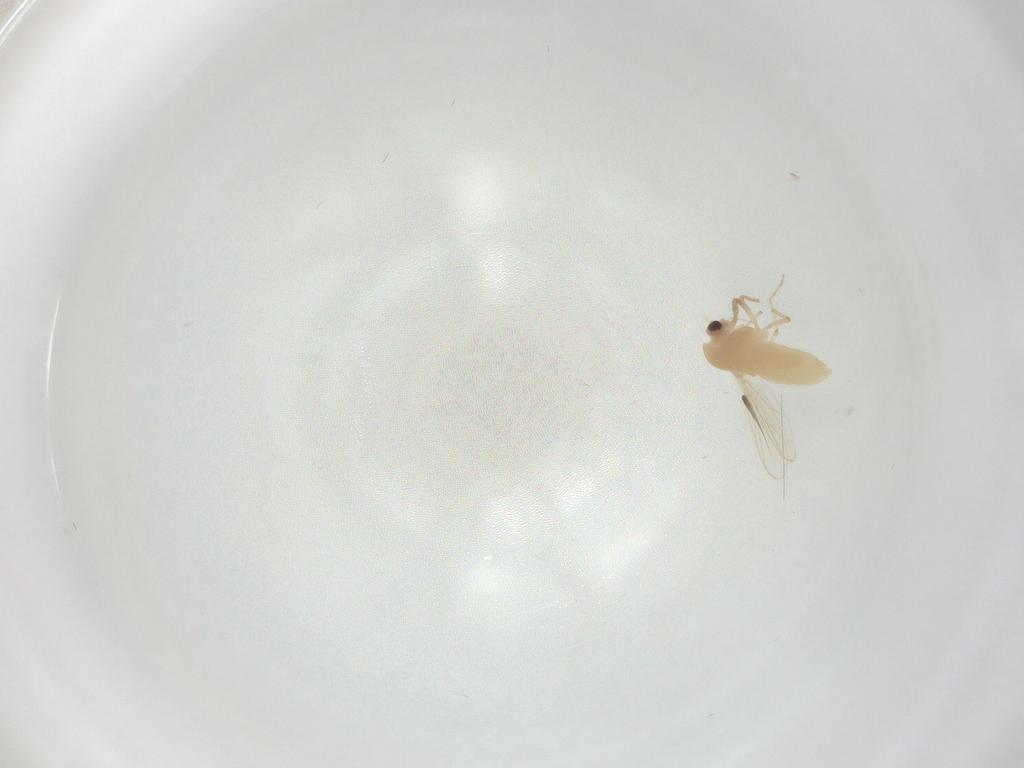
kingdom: Animalia
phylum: Arthropoda
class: Insecta
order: Diptera
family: Chironomidae
